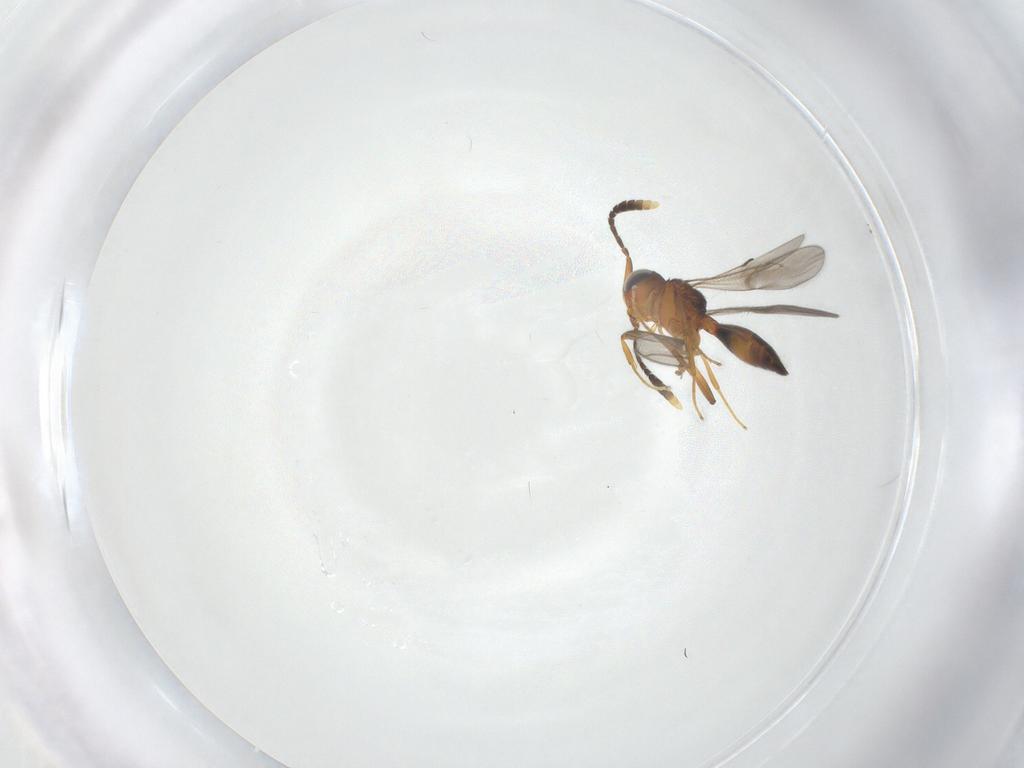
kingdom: Animalia
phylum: Arthropoda
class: Insecta
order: Hymenoptera
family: Scelionidae
